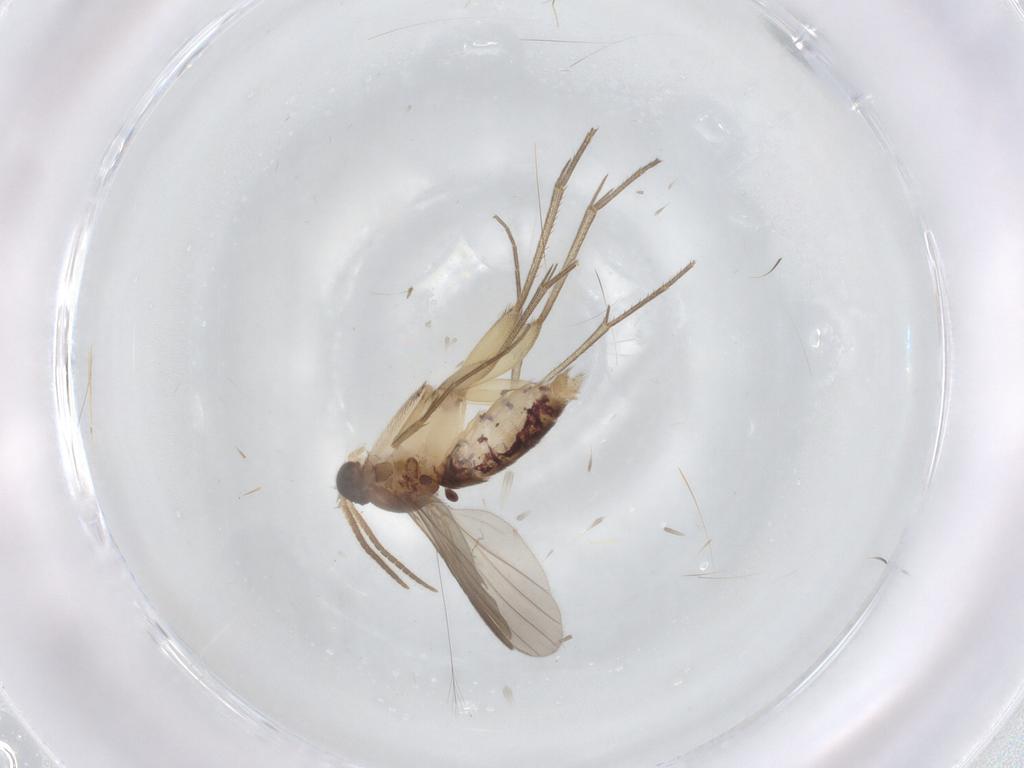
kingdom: Animalia
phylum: Arthropoda
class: Insecta
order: Diptera
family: Mycetophilidae
